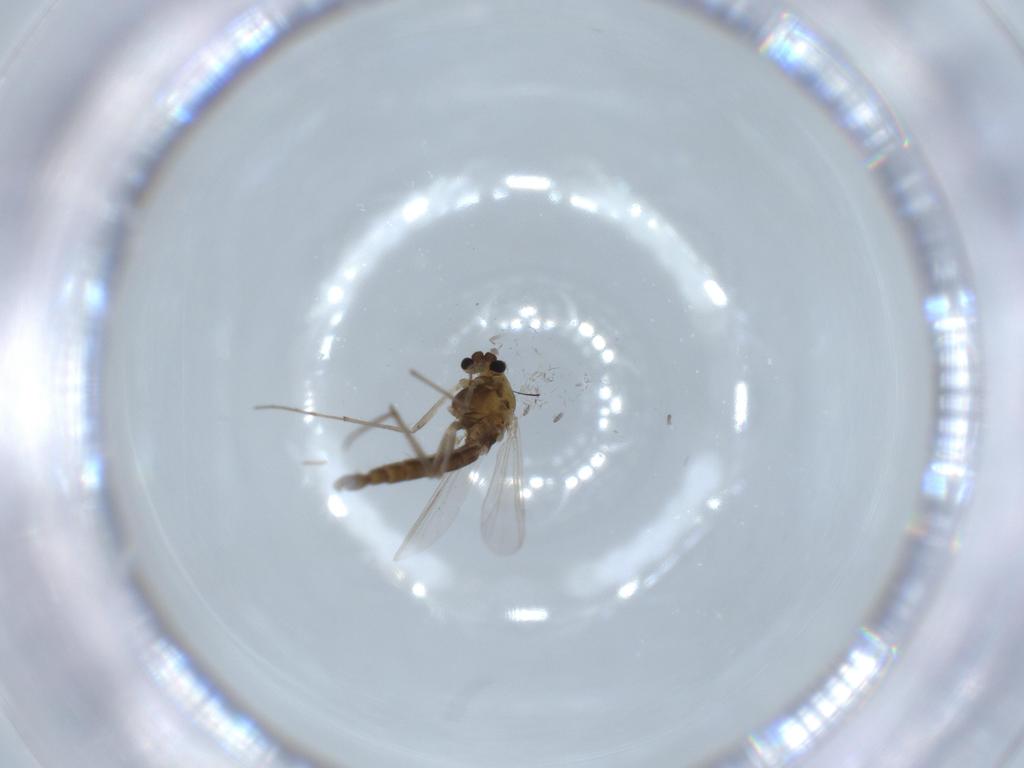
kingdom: Animalia
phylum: Arthropoda
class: Insecta
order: Diptera
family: Chironomidae
